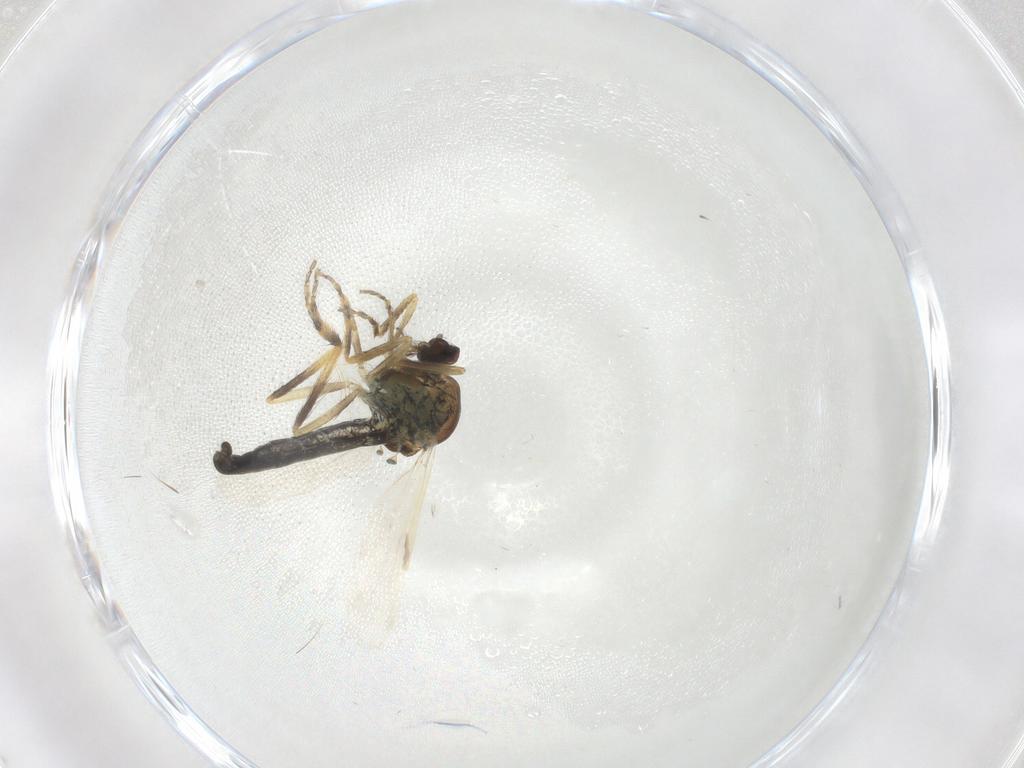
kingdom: Animalia
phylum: Arthropoda
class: Insecta
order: Diptera
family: Ceratopogonidae
